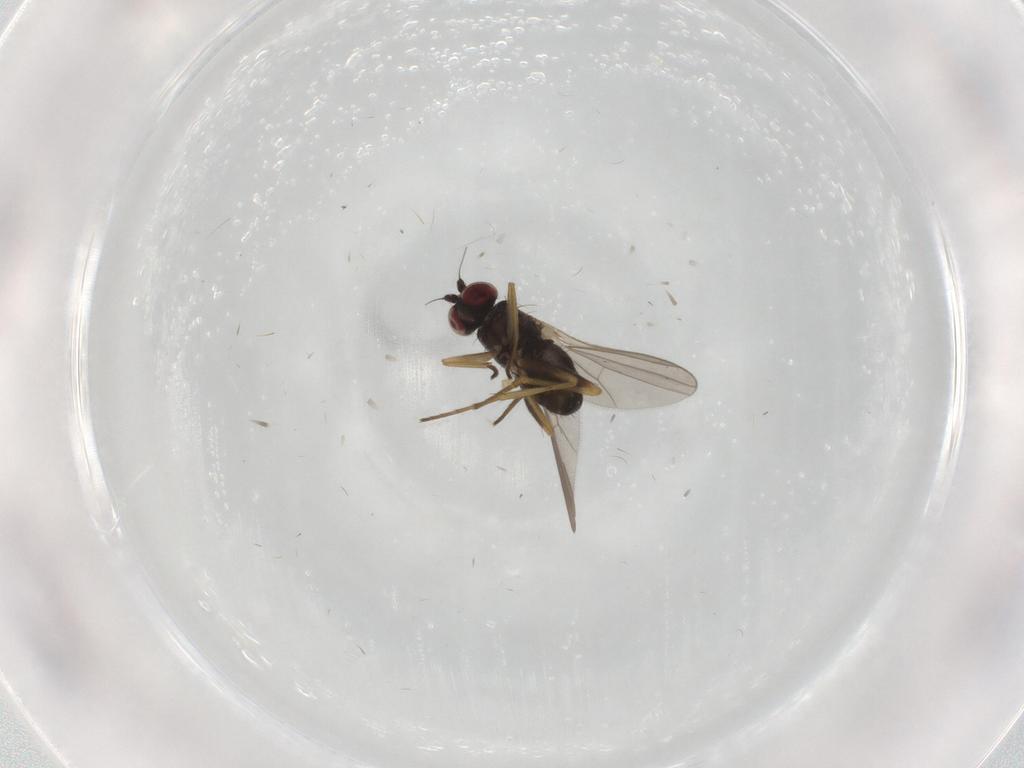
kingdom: Animalia
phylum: Arthropoda
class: Insecta
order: Diptera
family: Dolichopodidae
